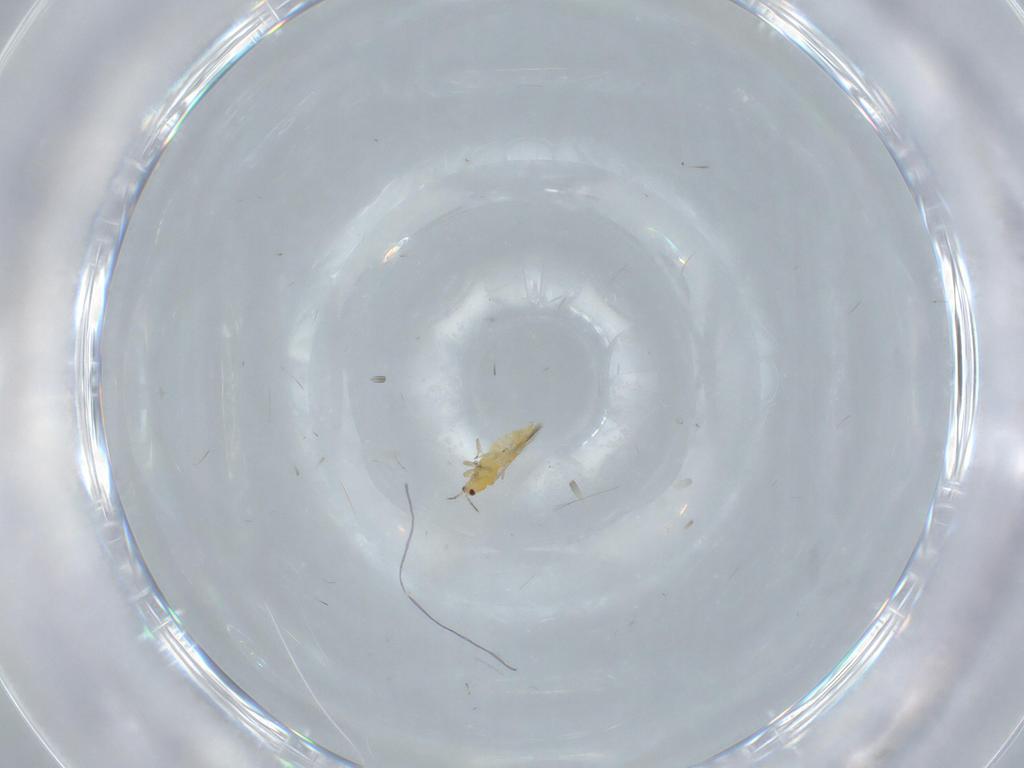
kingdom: Animalia
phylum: Arthropoda
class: Insecta
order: Thysanoptera
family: Thripidae
